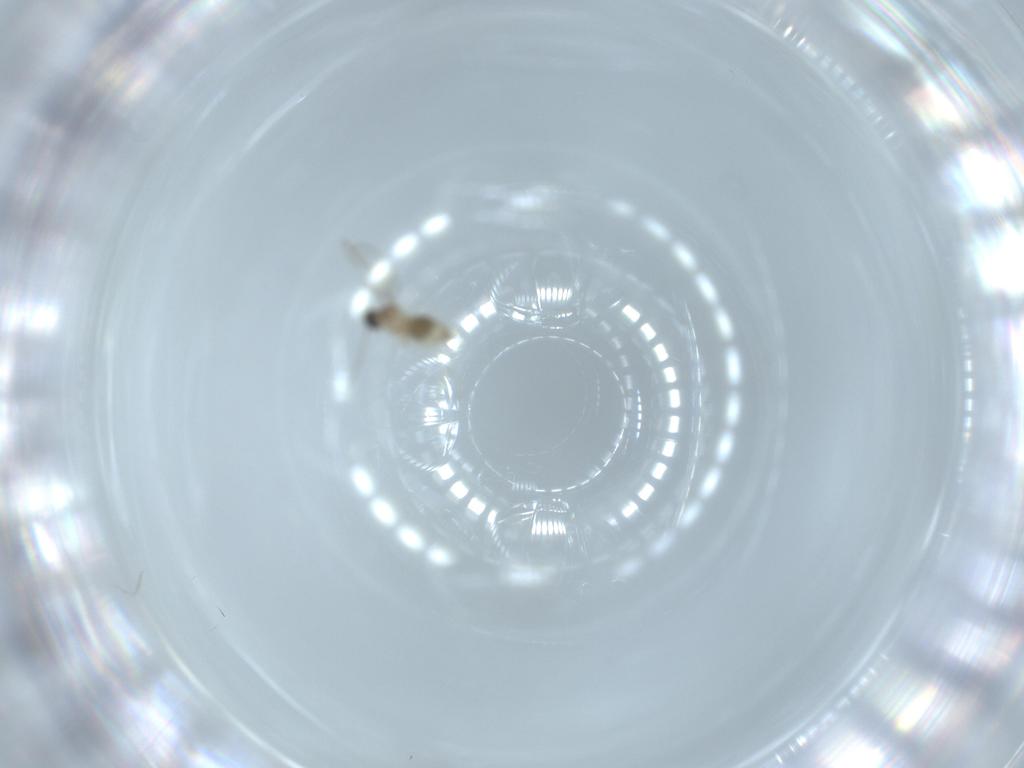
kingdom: Animalia
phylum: Arthropoda
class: Insecta
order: Diptera
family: Cecidomyiidae
